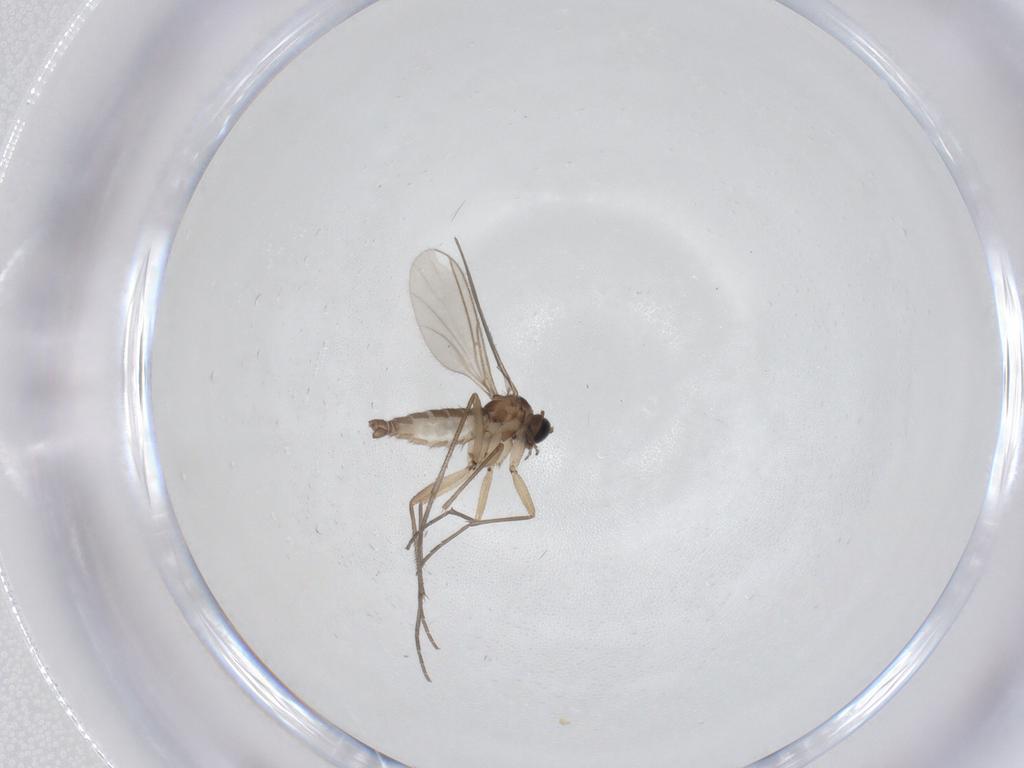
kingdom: Animalia
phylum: Arthropoda
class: Insecta
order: Diptera
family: Sciaridae
